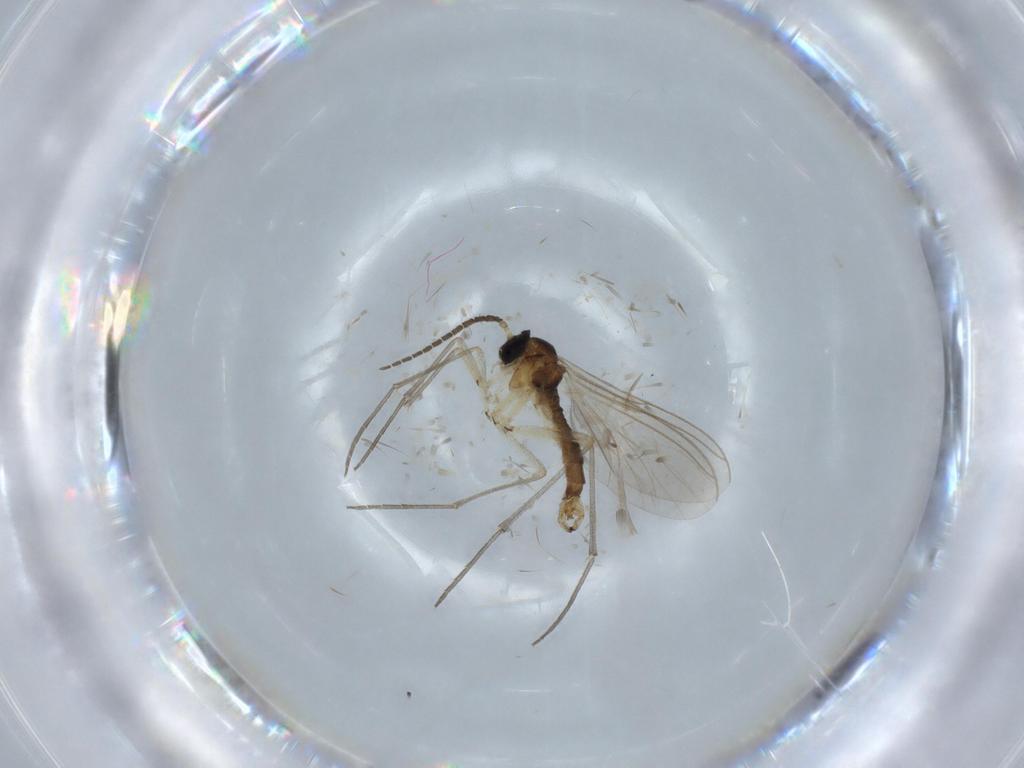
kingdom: Animalia
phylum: Arthropoda
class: Insecta
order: Diptera
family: Sciaridae
